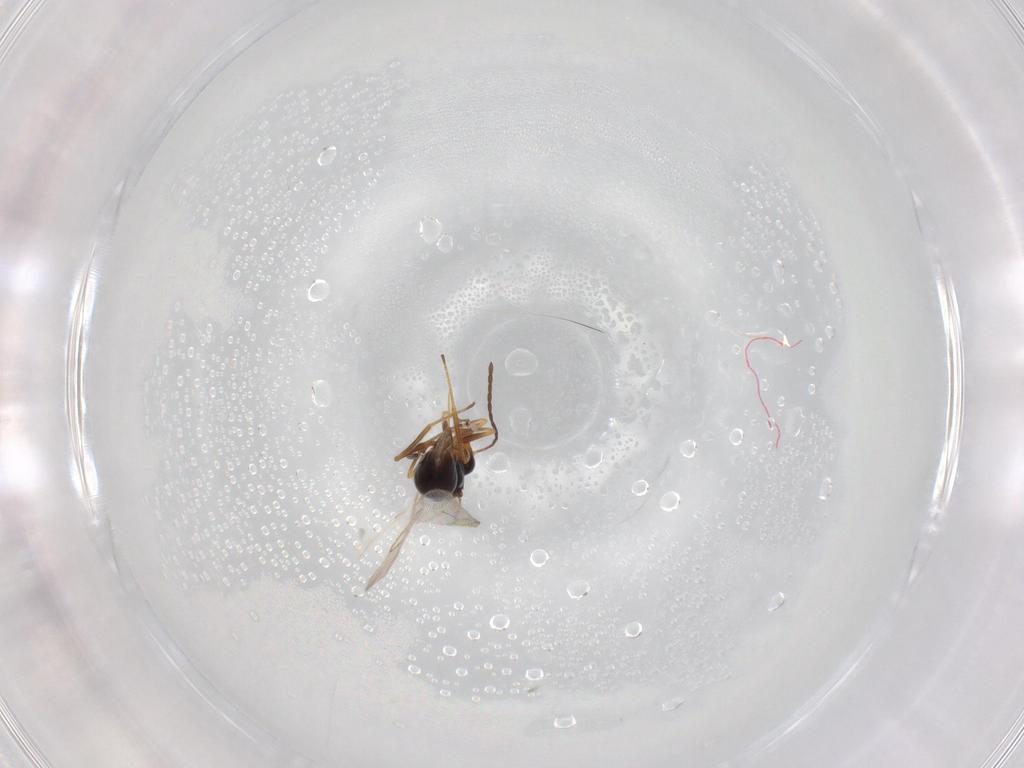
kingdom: Animalia
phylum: Arthropoda
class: Insecta
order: Hymenoptera
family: Figitidae
